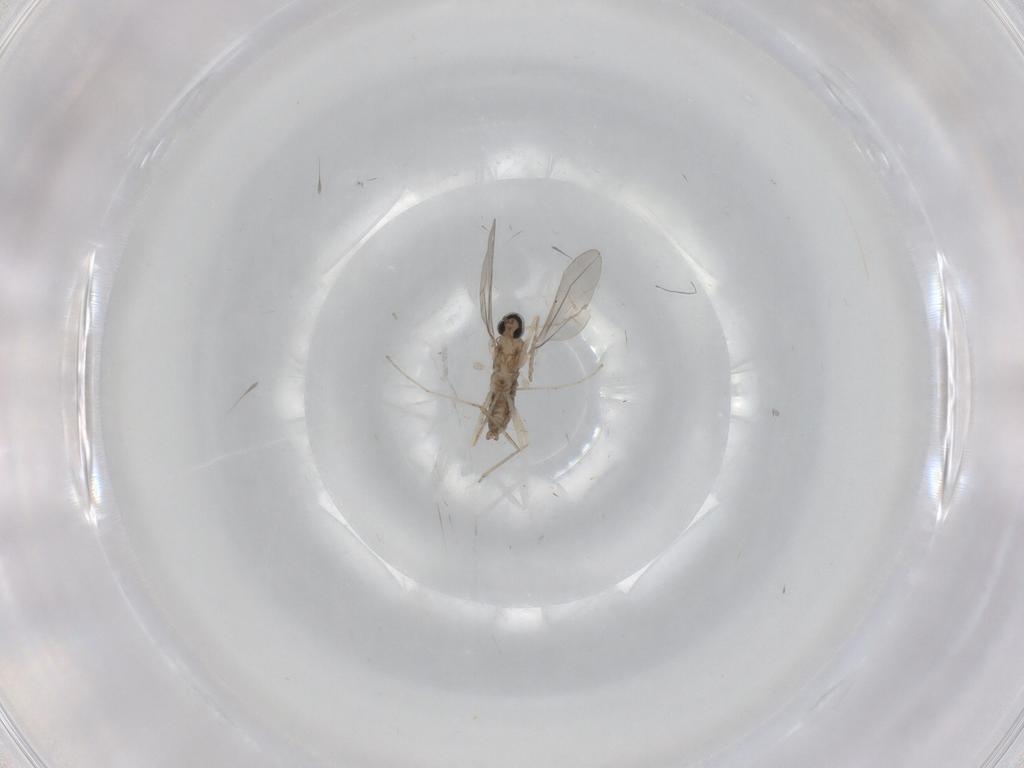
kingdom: Animalia
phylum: Arthropoda
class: Insecta
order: Diptera
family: Cecidomyiidae
